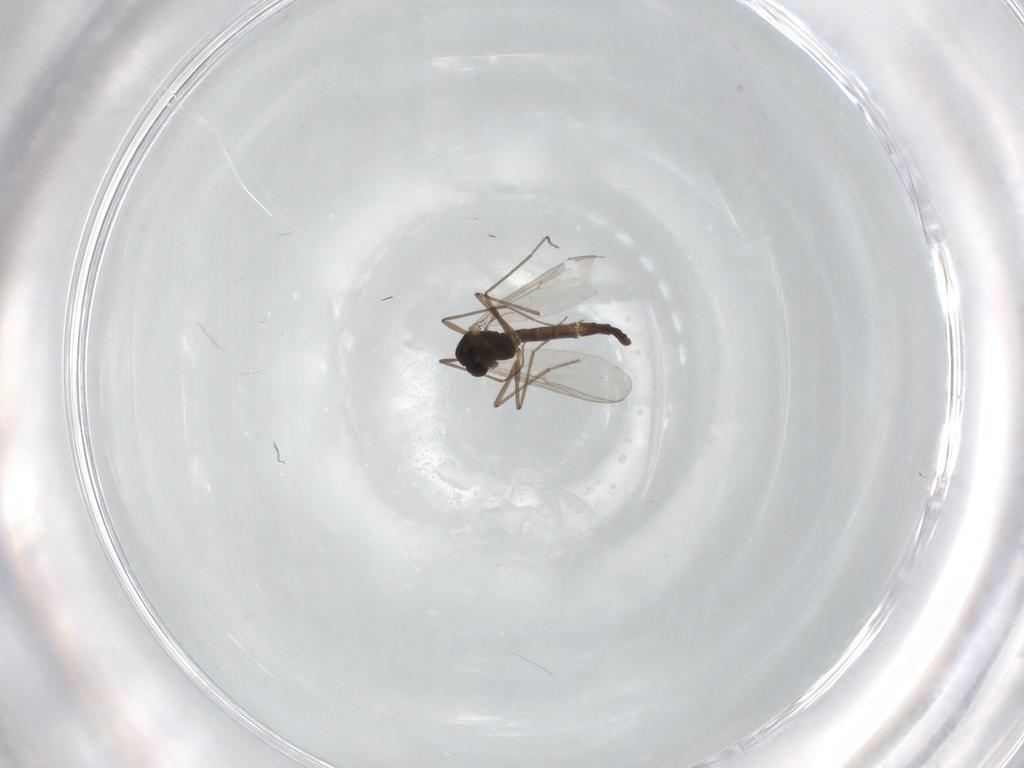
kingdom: Animalia
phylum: Arthropoda
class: Insecta
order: Diptera
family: Chironomidae
